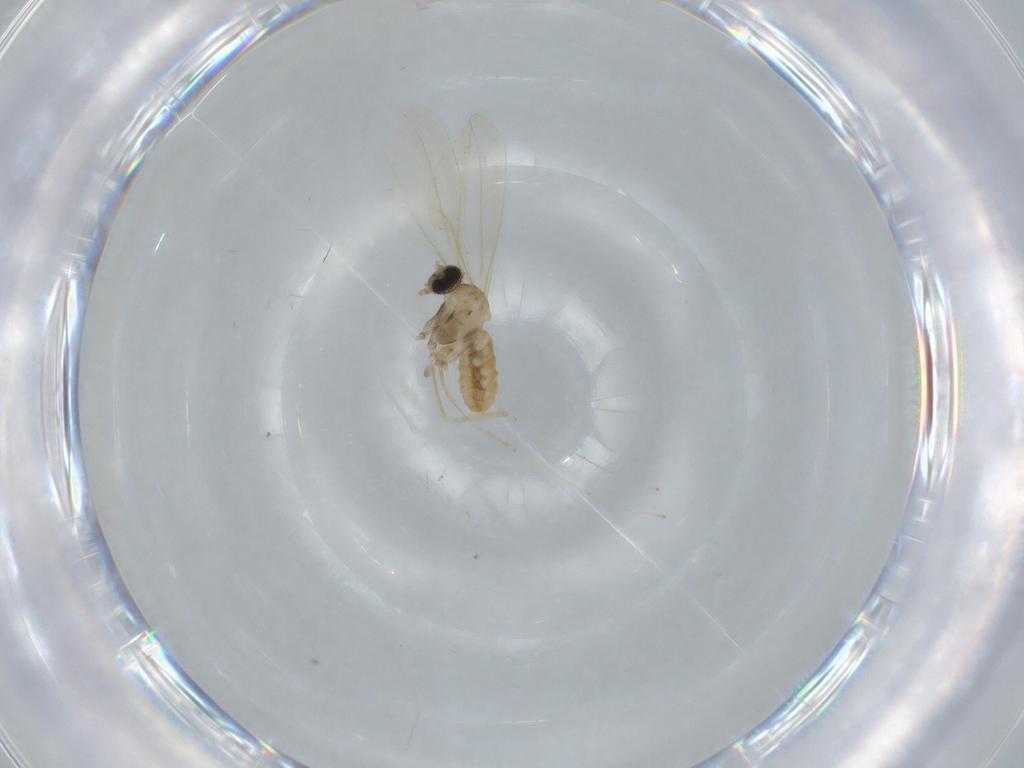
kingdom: Animalia
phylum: Arthropoda
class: Insecta
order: Diptera
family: Cecidomyiidae
